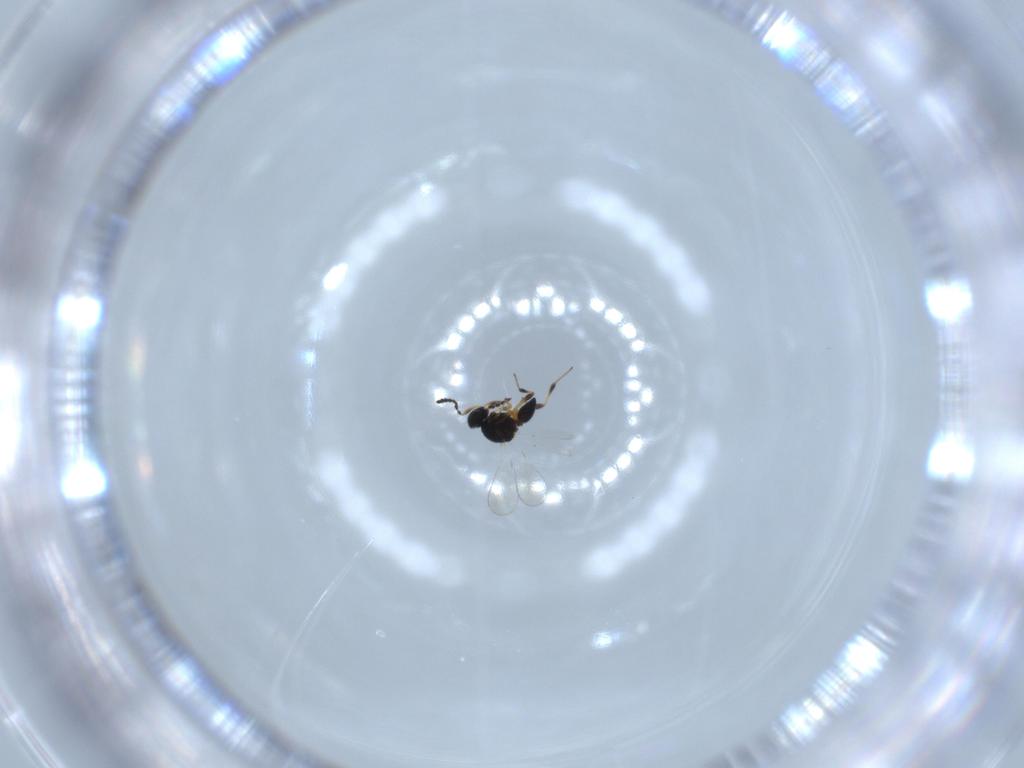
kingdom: Animalia
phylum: Arthropoda
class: Insecta
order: Hymenoptera
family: Platygastridae
